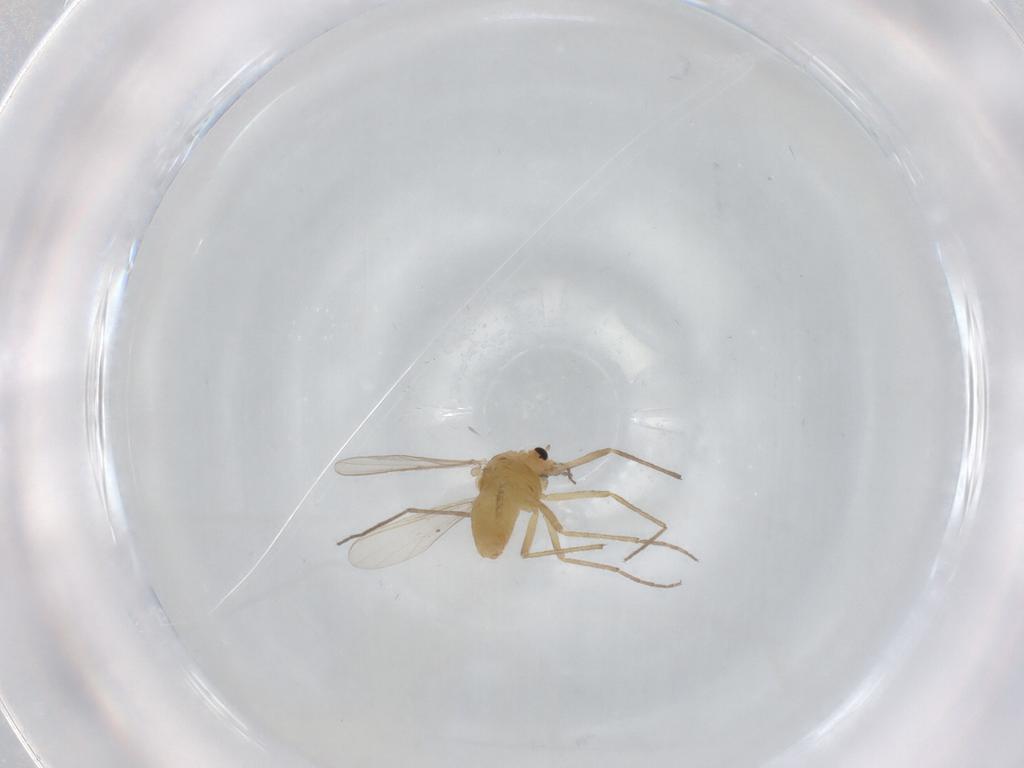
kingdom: Animalia
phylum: Arthropoda
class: Insecta
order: Diptera
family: Chironomidae
